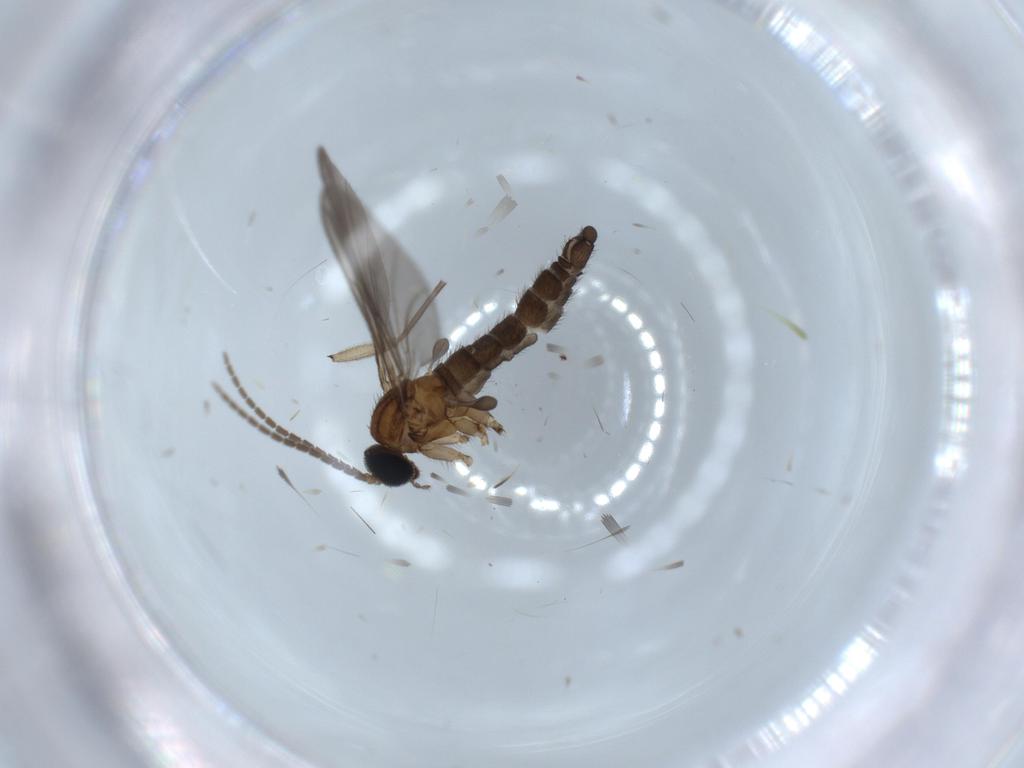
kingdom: Animalia
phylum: Arthropoda
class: Insecta
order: Diptera
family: Sciaridae
